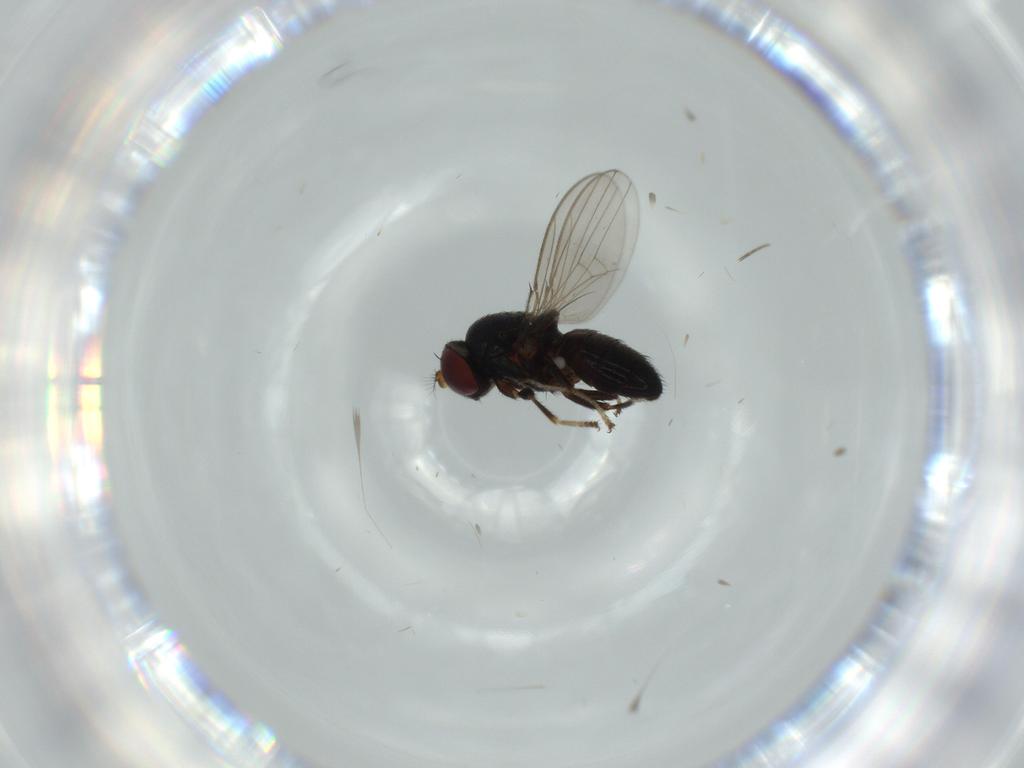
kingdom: Animalia
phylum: Arthropoda
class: Insecta
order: Diptera
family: Ephydridae
